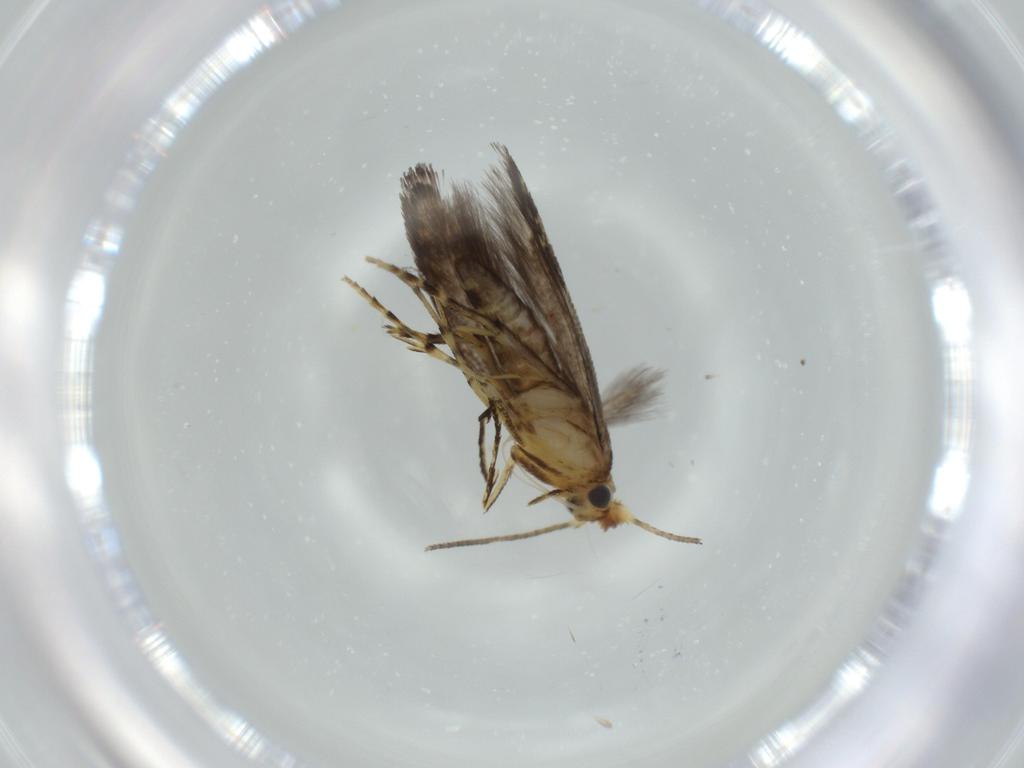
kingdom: Animalia
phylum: Arthropoda
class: Insecta
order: Lepidoptera
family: Argyresthiidae
